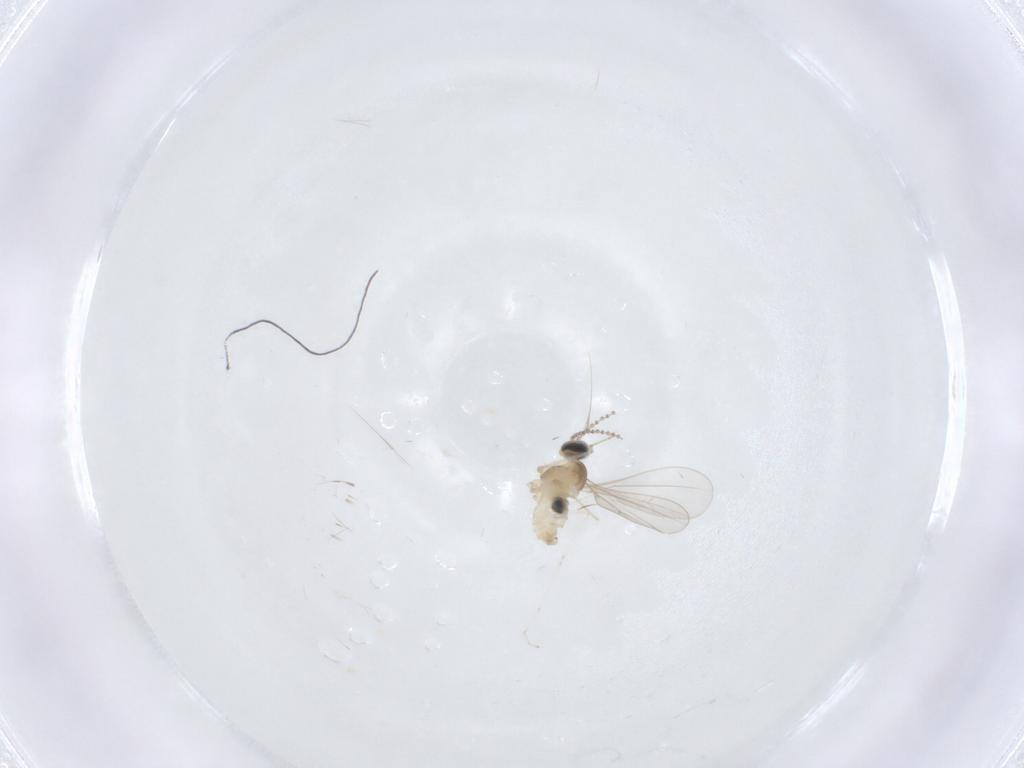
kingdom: Animalia
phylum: Arthropoda
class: Insecta
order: Diptera
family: Cecidomyiidae
